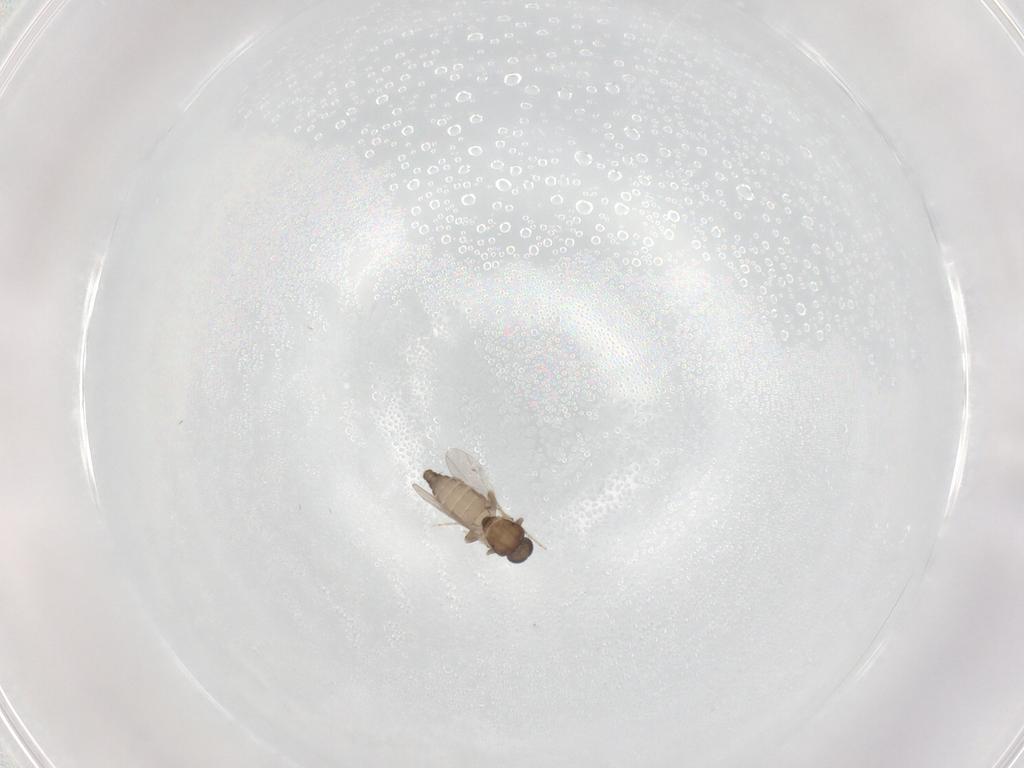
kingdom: Animalia
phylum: Arthropoda
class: Insecta
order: Diptera
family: Ceratopogonidae
